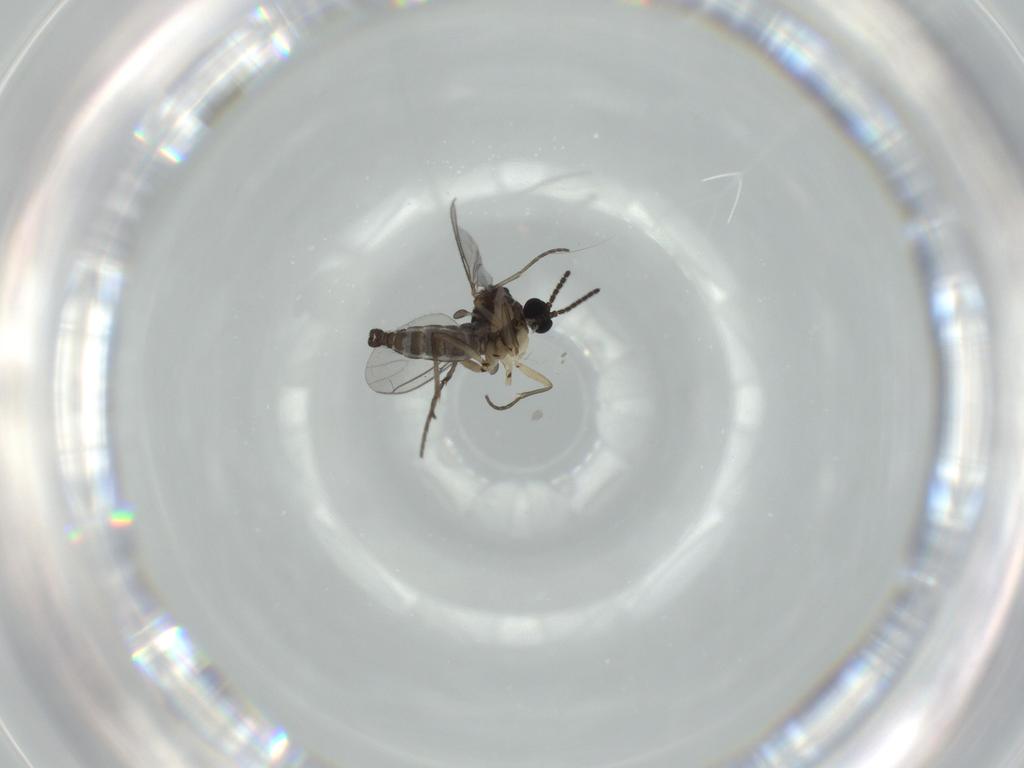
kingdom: Animalia
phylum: Arthropoda
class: Insecta
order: Diptera
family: Sciaridae
